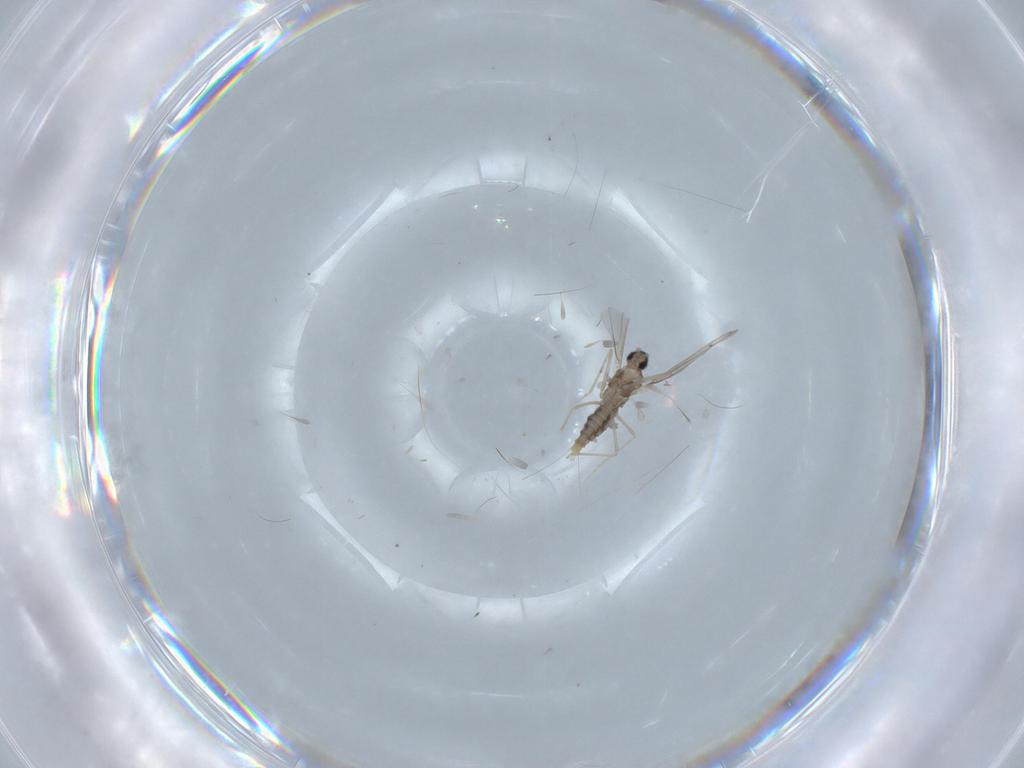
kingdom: Animalia
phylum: Arthropoda
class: Insecta
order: Diptera
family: Cecidomyiidae
